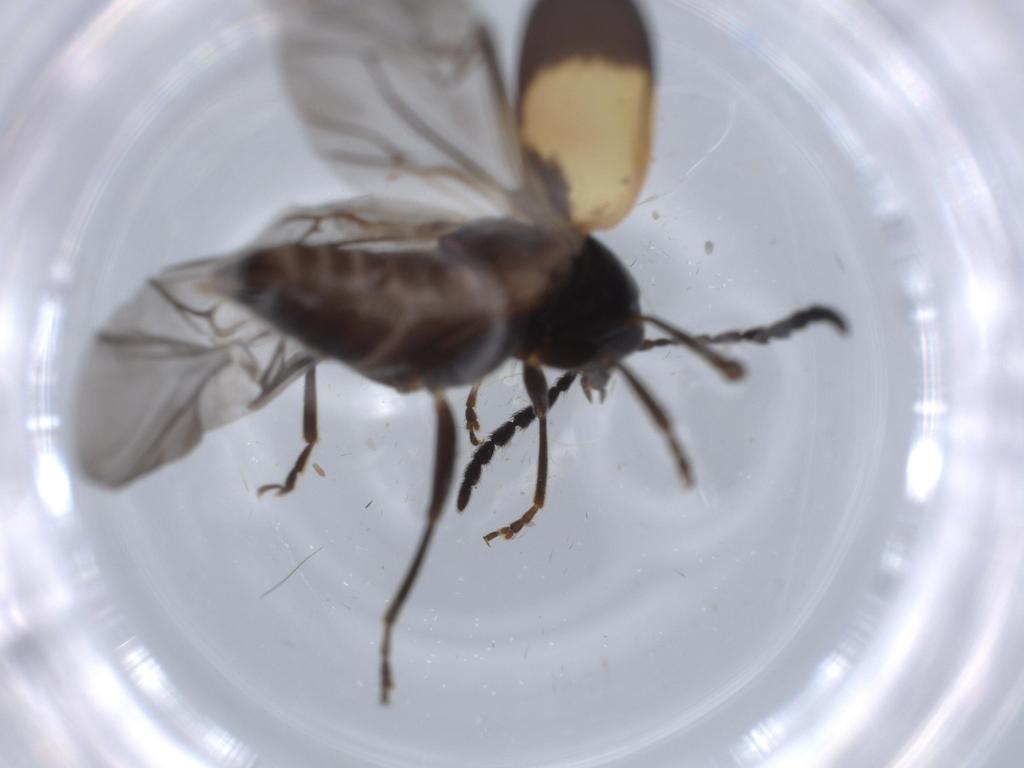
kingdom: Animalia
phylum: Arthropoda
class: Insecta
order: Coleoptera
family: Chrysomelidae
